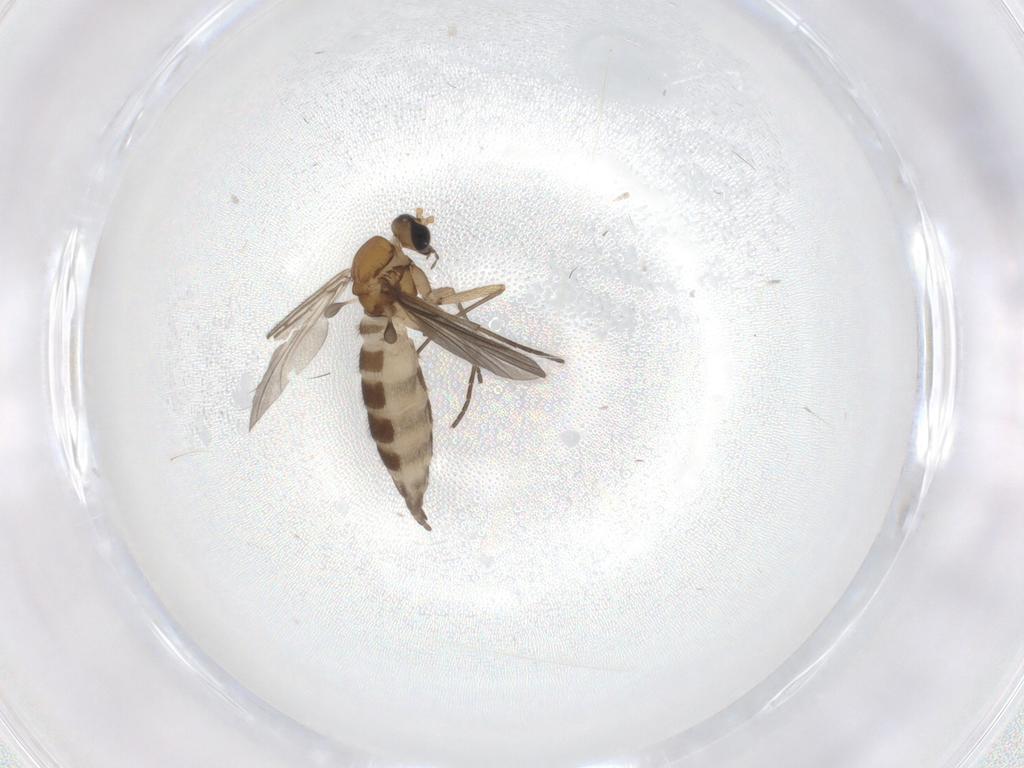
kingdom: Animalia
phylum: Arthropoda
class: Insecta
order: Diptera
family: Sciaridae
